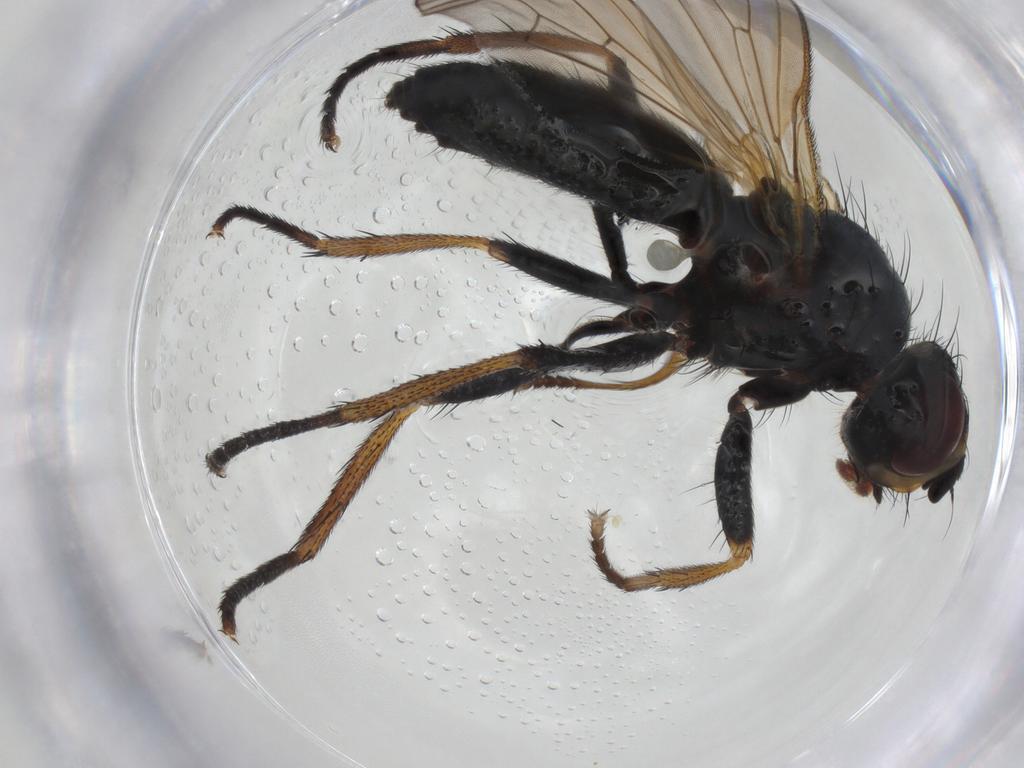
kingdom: Animalia
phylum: Arthropoda
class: Insecta
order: Diptera
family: Scathophagidae
